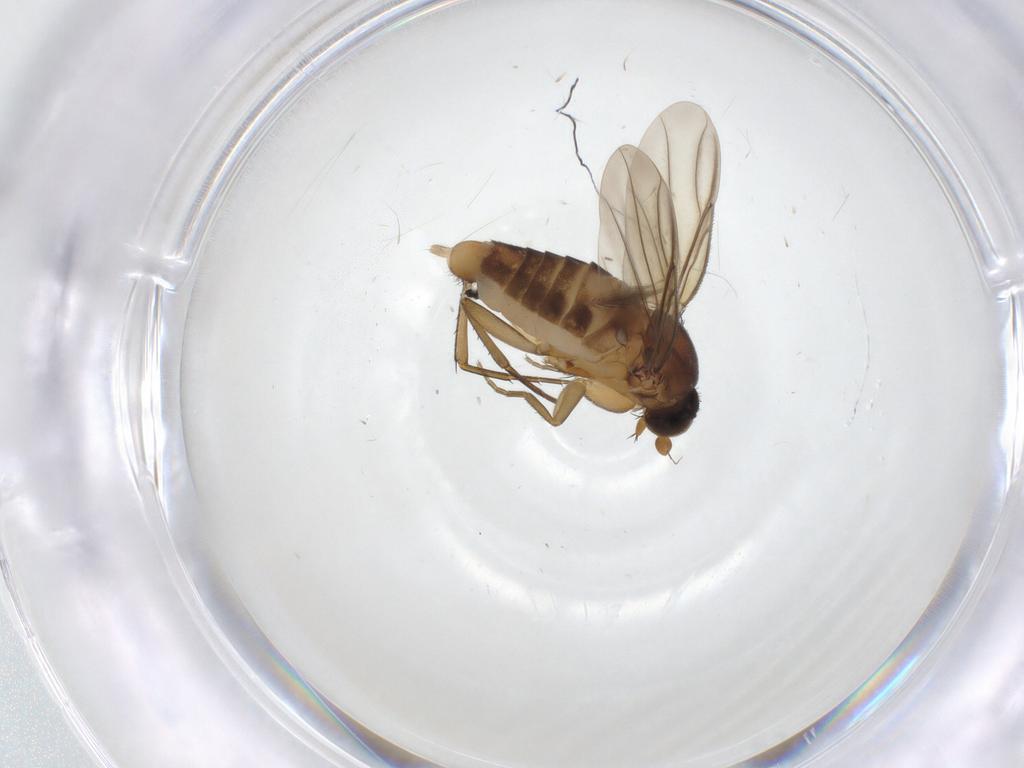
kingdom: Animalia
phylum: Arthropoda
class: Insecta
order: Diptera
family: Phoridae
